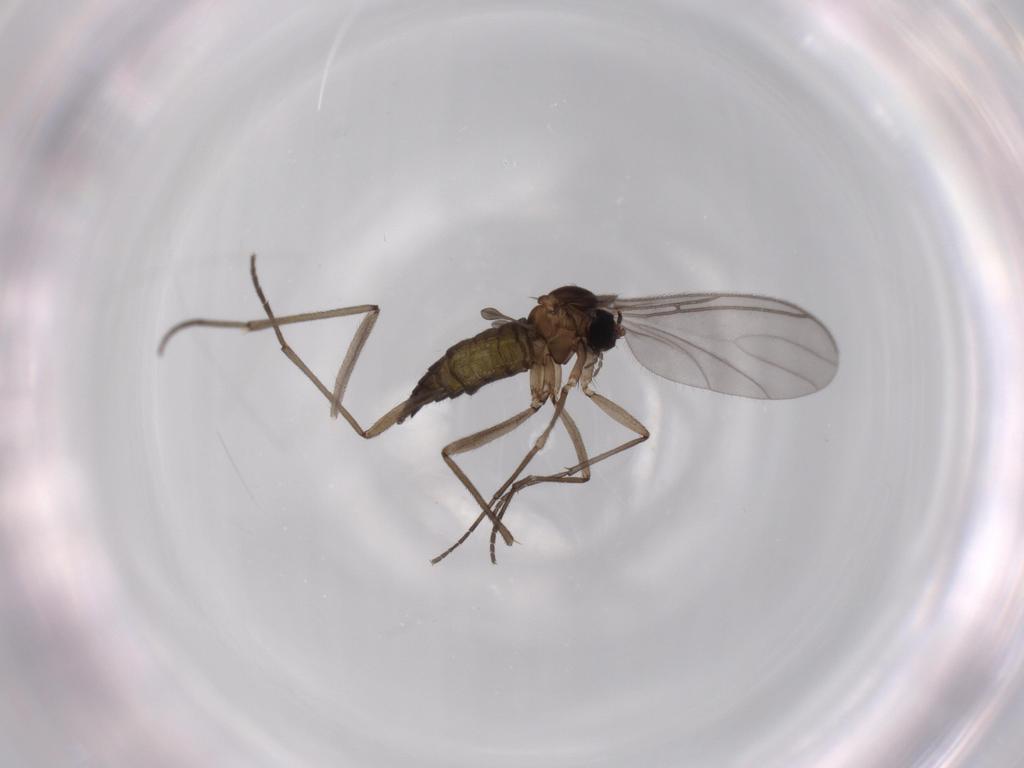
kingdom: Animalia
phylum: Arthropoda
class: Insecta
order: Diptera
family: Sciaridae
